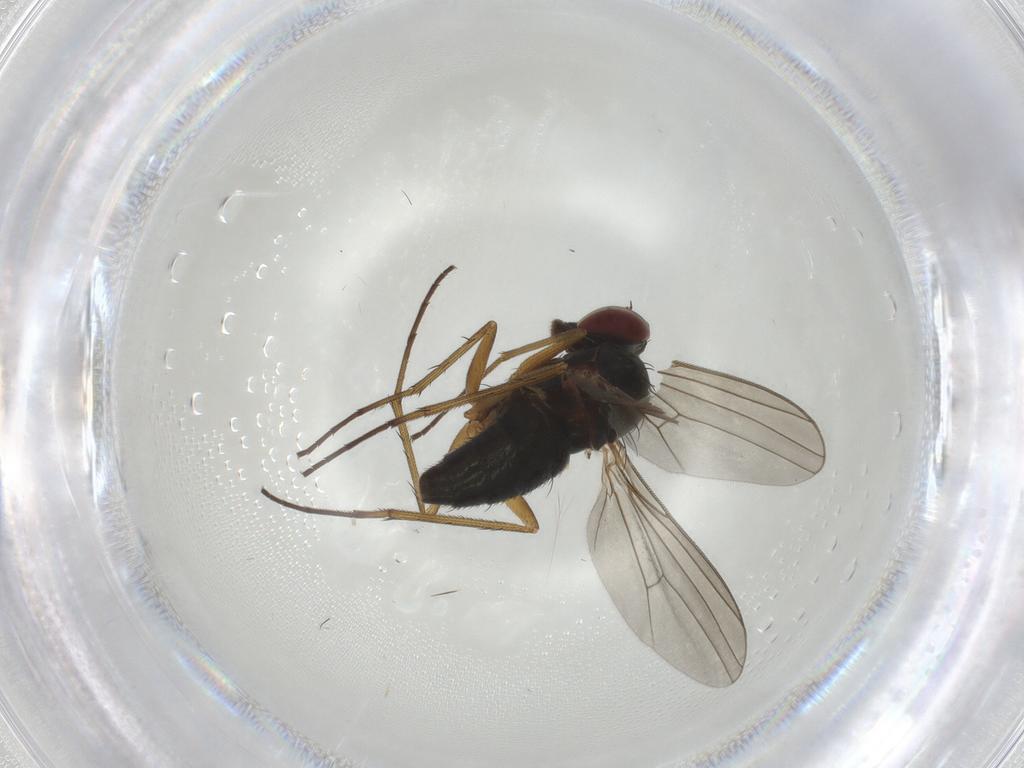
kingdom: Animalia
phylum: Arthropoda
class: Insecta
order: Diptera
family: Dolichopodidae
